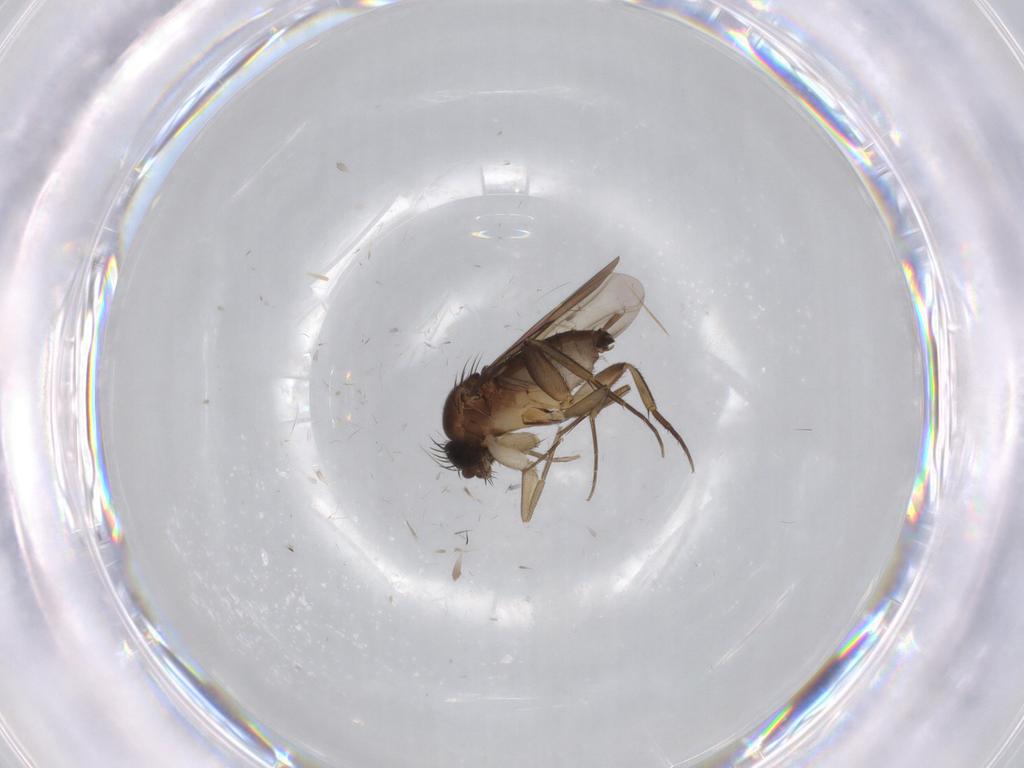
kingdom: Animalia
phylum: Arthropoda
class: Insecta
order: Diptera
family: Phoridae
